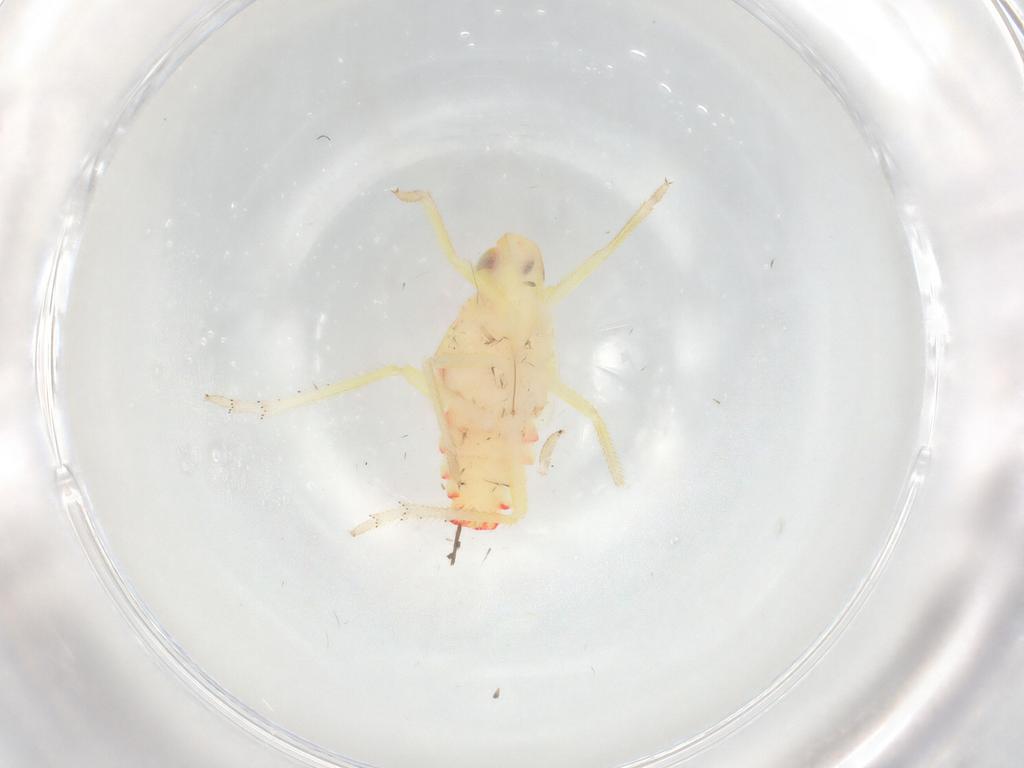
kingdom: Animalia
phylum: Arthropoda
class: Insecta
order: Hemiptera
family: Tropiduchidae
